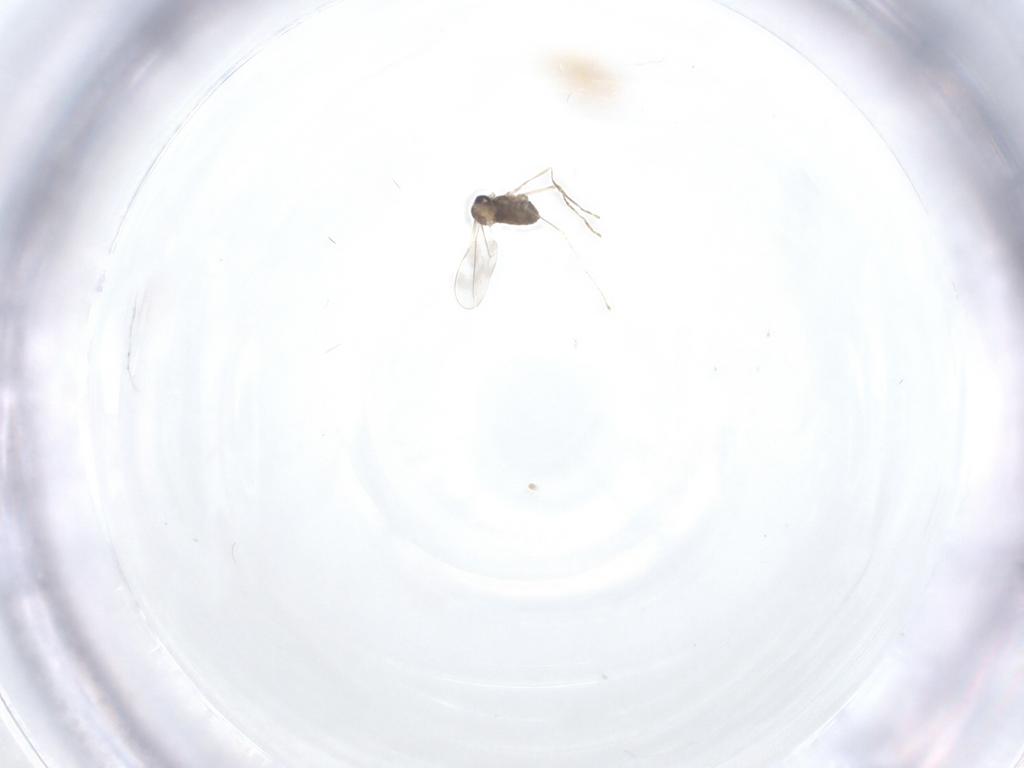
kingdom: Animalia
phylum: Arthropoda
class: Insecta
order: Diptera
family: Cecidomyiidae
